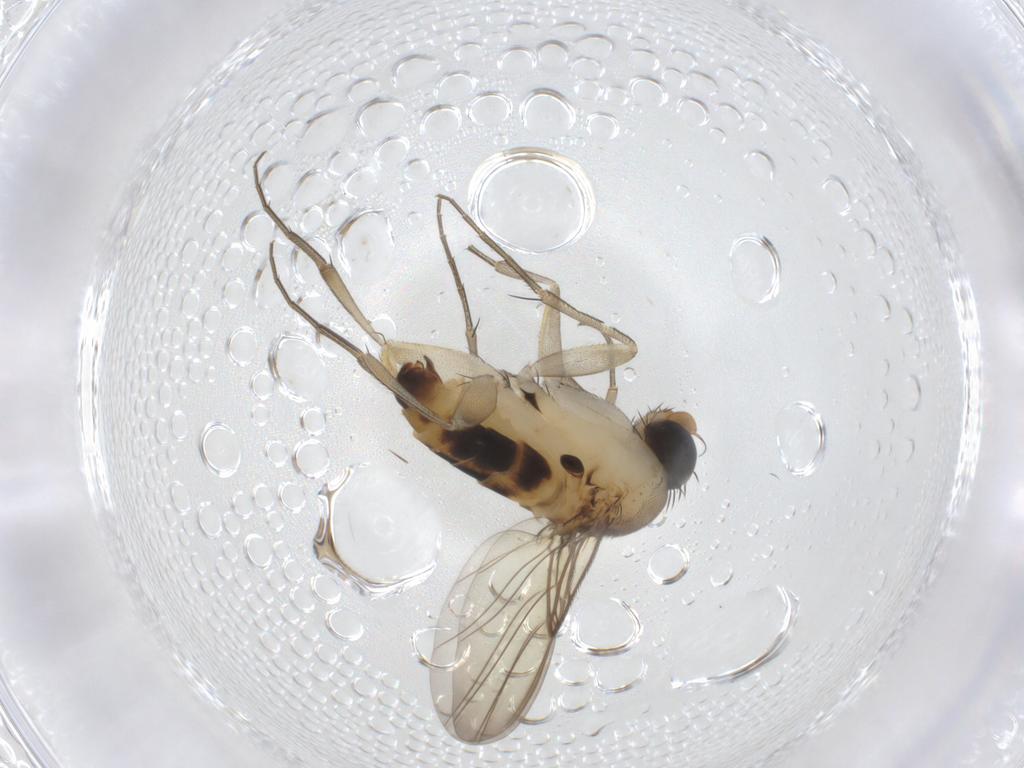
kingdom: Animalia
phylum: Arthropoda
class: Insecta
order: Diptera
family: Phoridae
